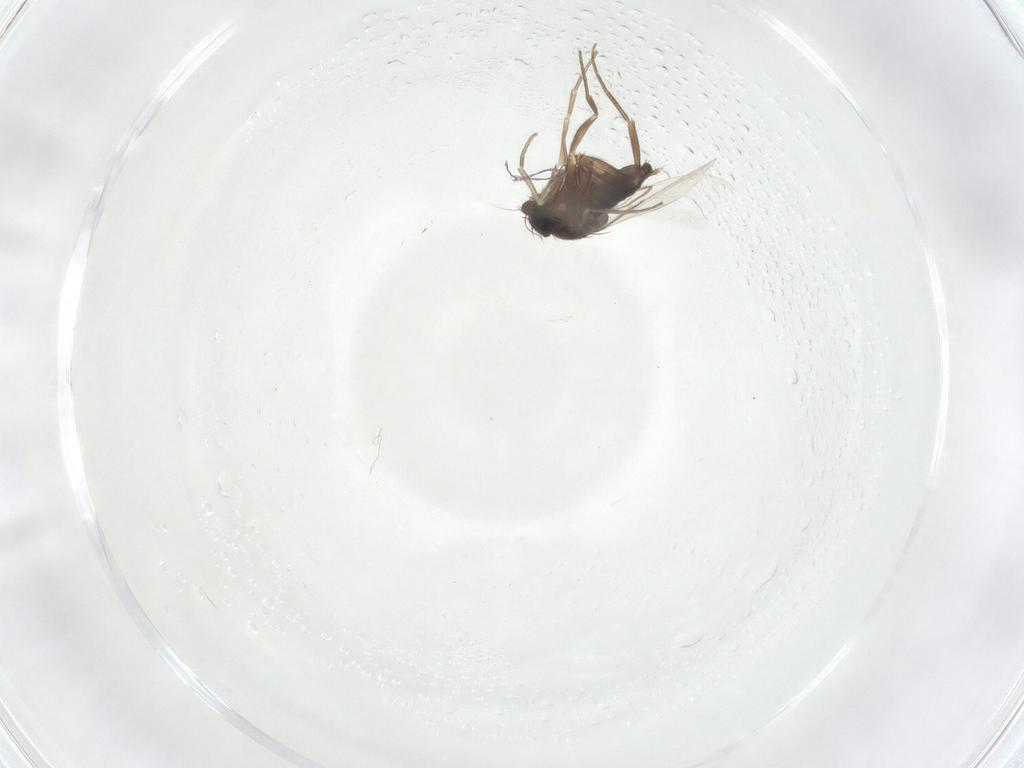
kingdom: Animalia
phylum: Arthropoda
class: Insecta
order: Diptera
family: Phoridae
